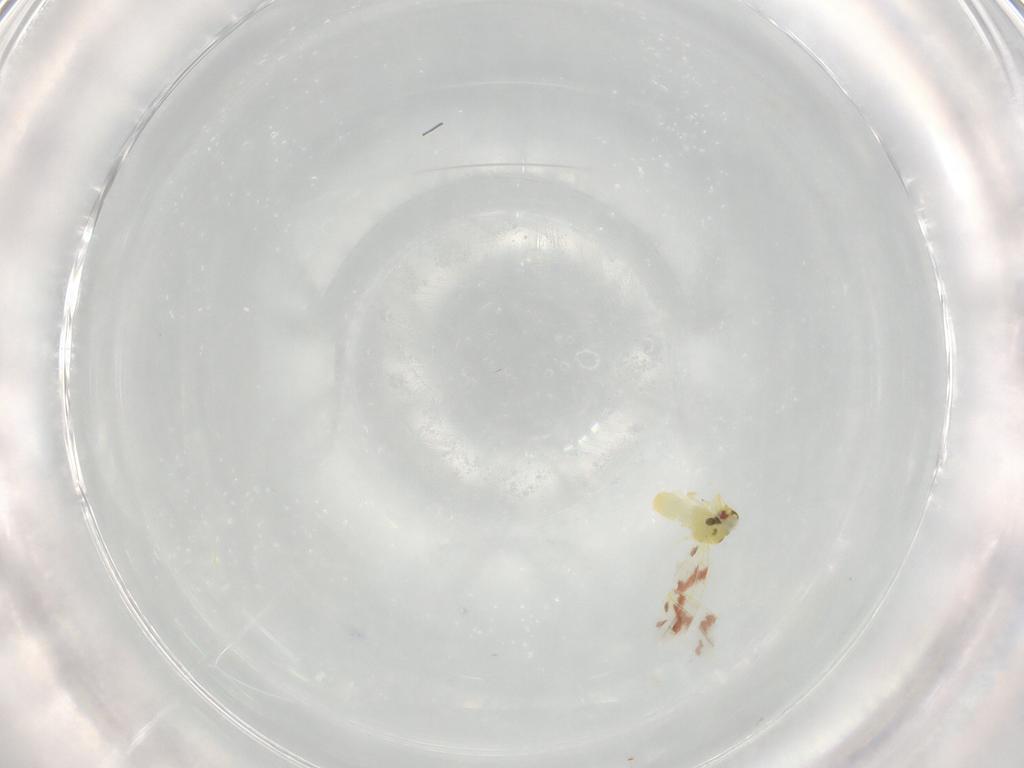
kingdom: Animalia
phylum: Arthropoda
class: Insecta
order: Hemiptera
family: Aleyrodidae
